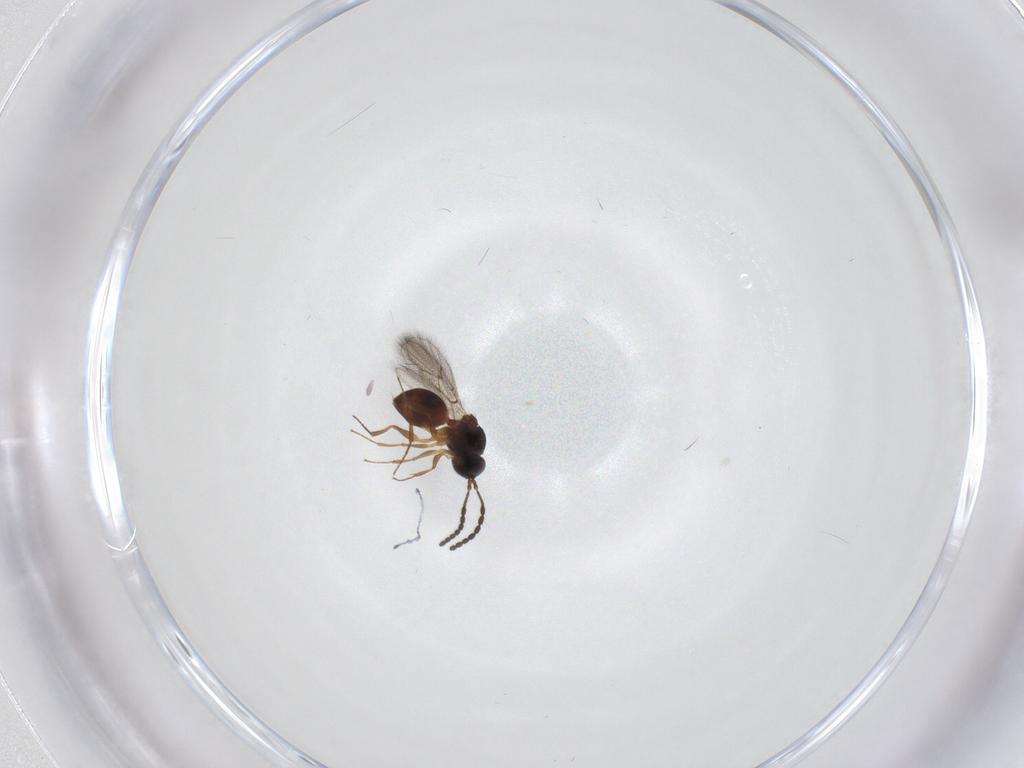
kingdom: Animalia
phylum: Arthropoda
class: Insecta
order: Hymenoptera
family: Figitidae
